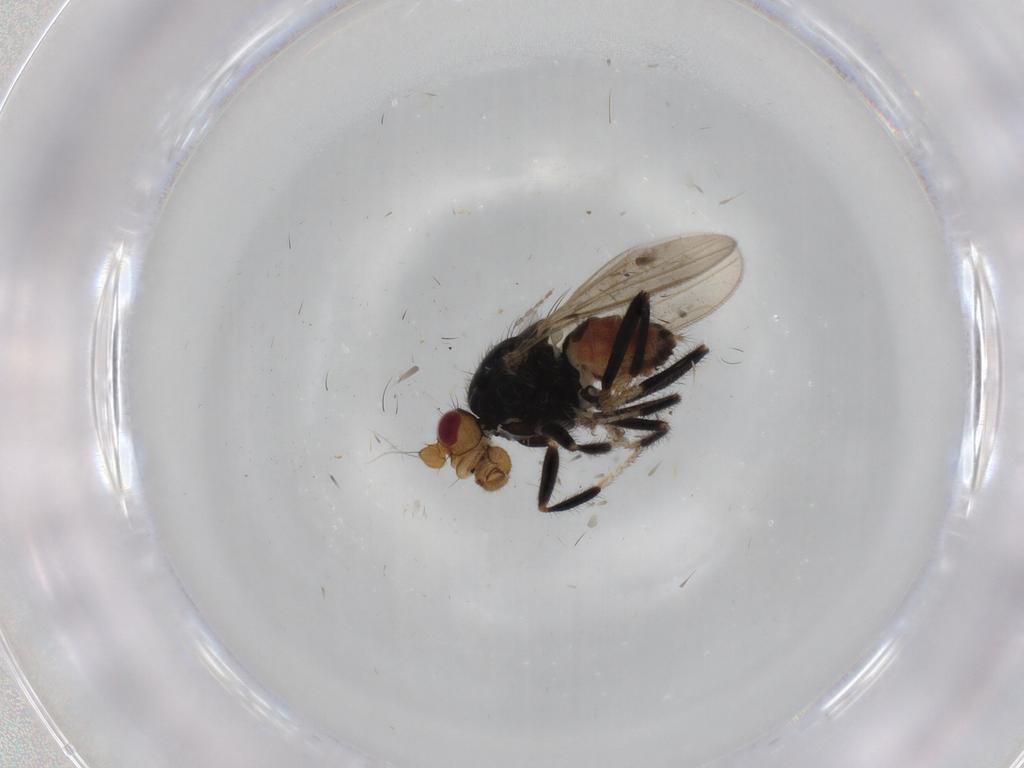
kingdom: Animalia
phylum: Arthropoda
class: Insecta
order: Diptera
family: Sphaeroceridae
